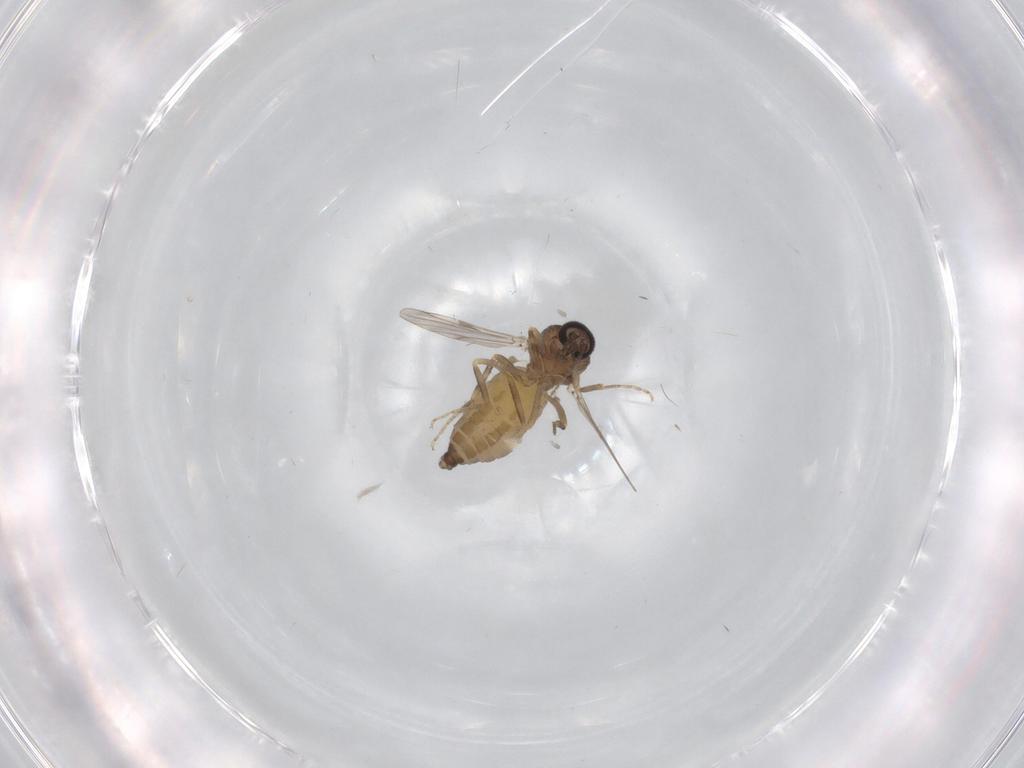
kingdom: Animalia
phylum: Arthropoda
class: Insecta
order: Diptera
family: Ceratopogonidae
